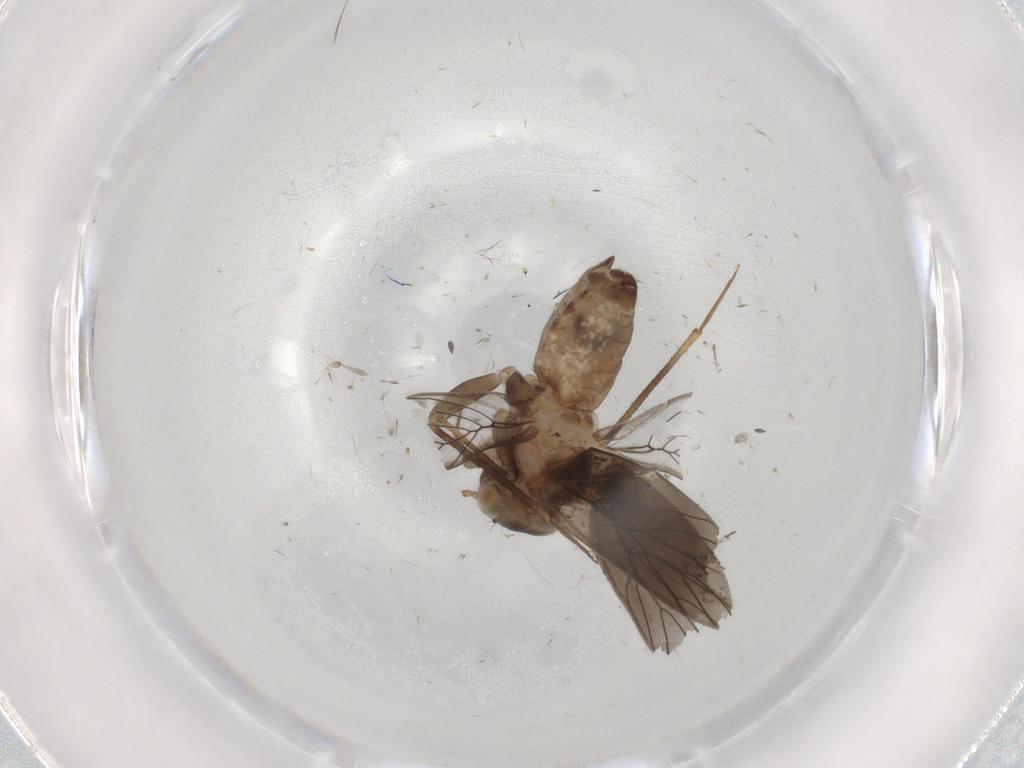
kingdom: Animalia
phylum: Arthropoda
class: Insecta
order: Psocodea
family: Lepidopsocidae
